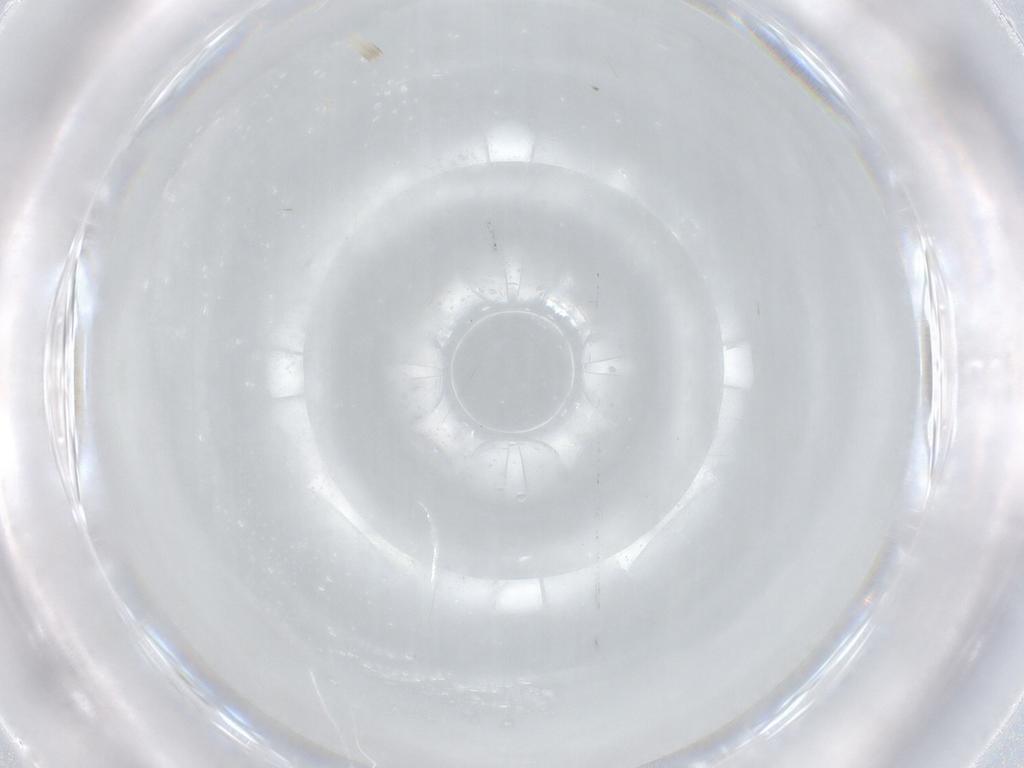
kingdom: Animalia
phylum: Arthropoda
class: Insecta
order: Diptera
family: Cecidomyiidae
